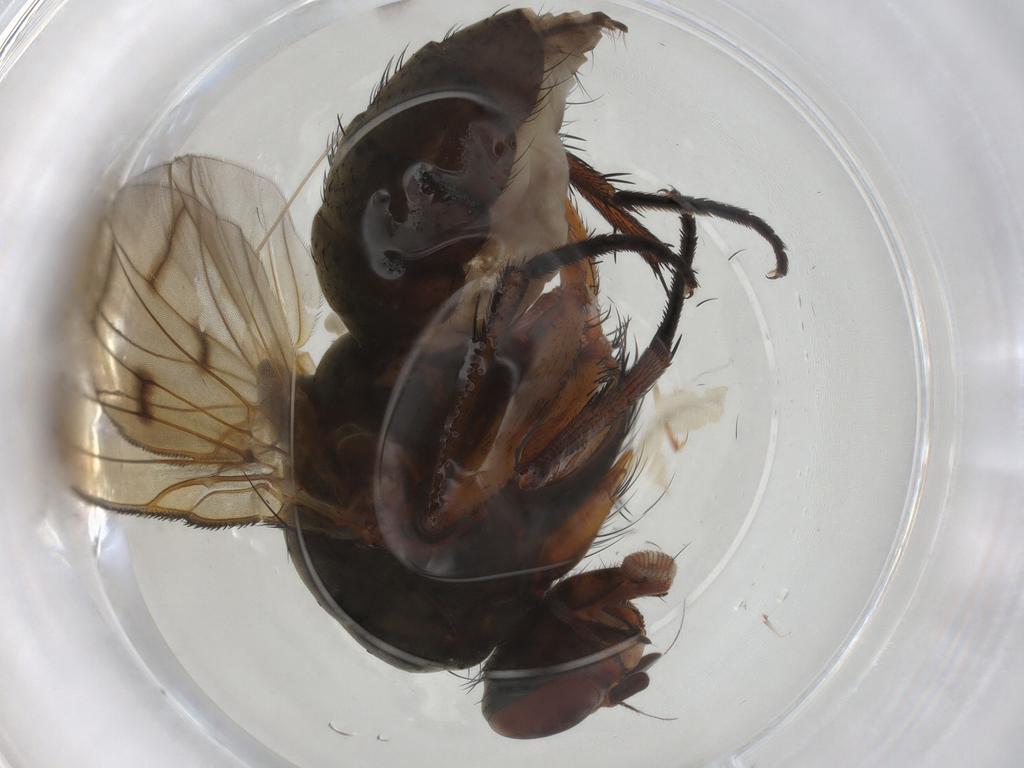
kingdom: Animalia
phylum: Arthropoda
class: Insecta
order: Diptera
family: Anthomyiidae
